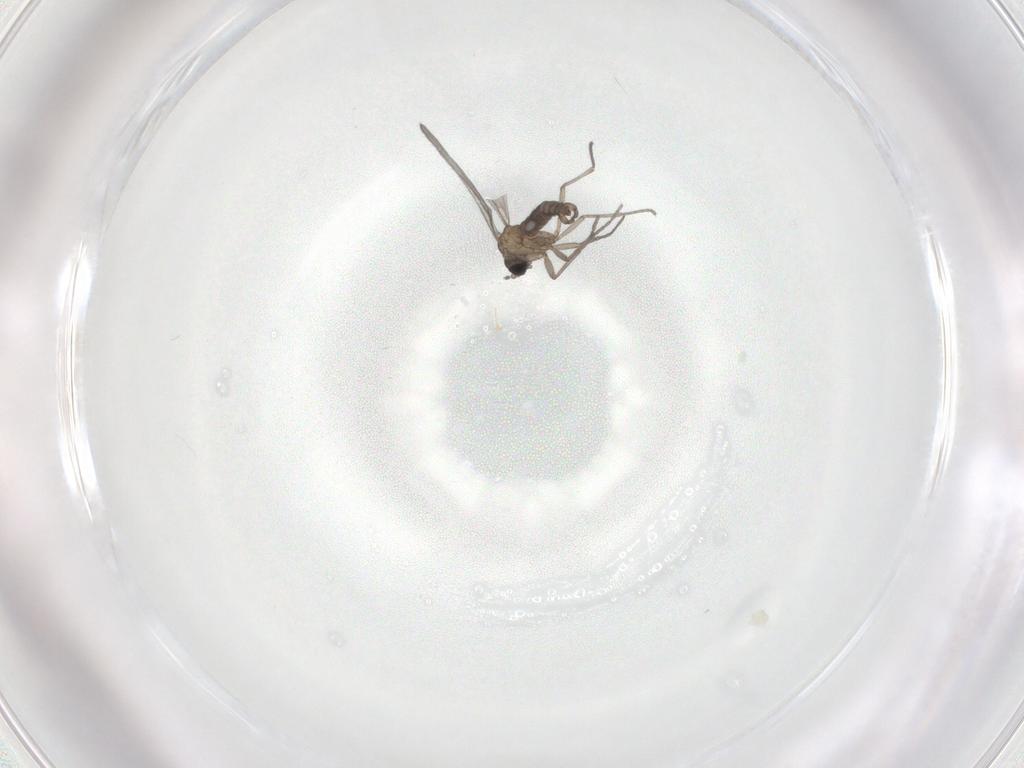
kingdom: Animalia
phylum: Arthropoda
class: Insecta
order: Diptera
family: Sciaridae
